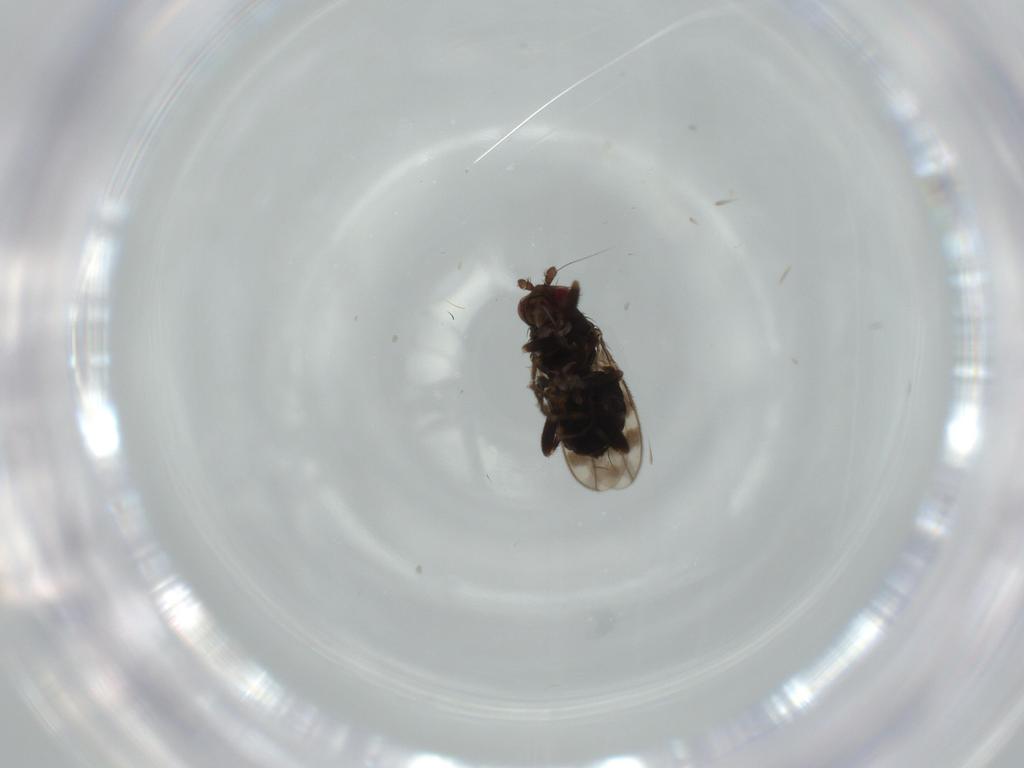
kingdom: Animalia
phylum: Arthropoda
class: Insecta
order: Diptera
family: Sphaeroceridae
